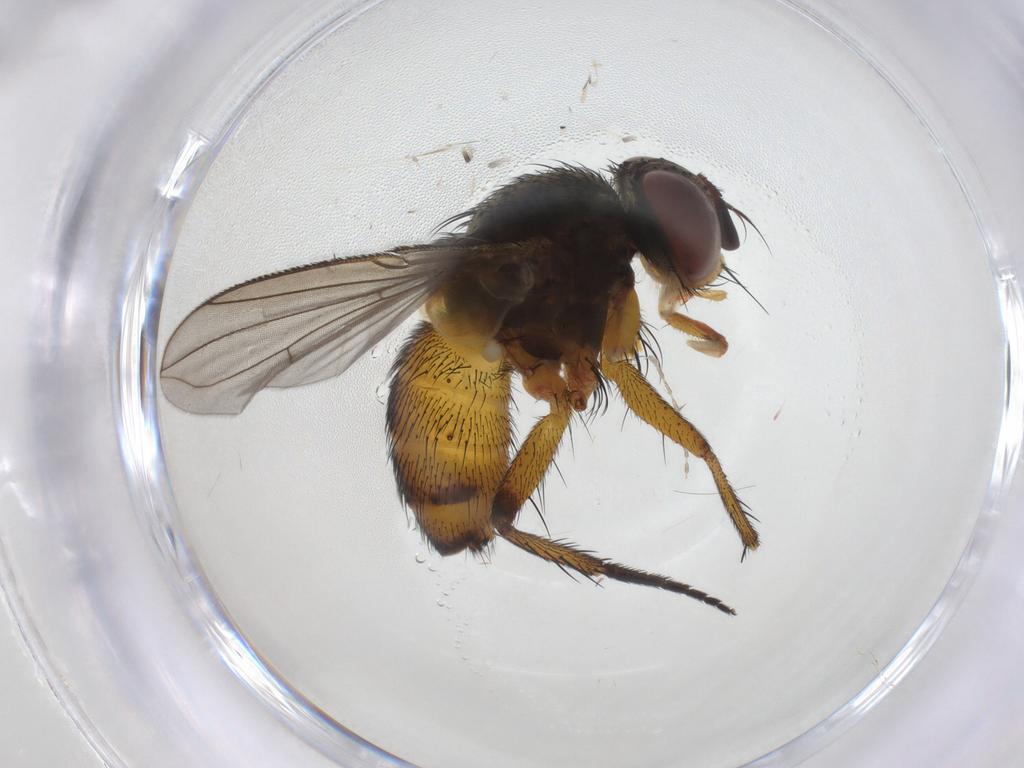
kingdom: Animalia
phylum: Arthropoda
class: Insecta
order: Diptera
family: Tachinidae
